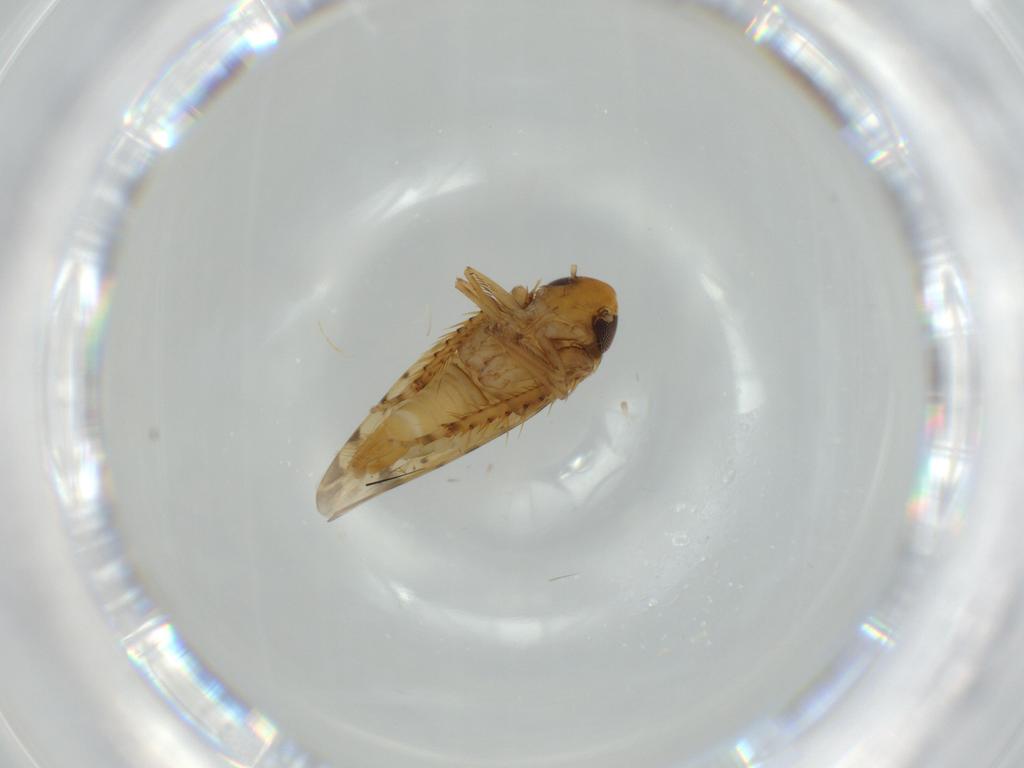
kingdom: Animalia
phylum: Arthropoda
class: Insecta
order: Hemiptera
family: Cicadellidae
